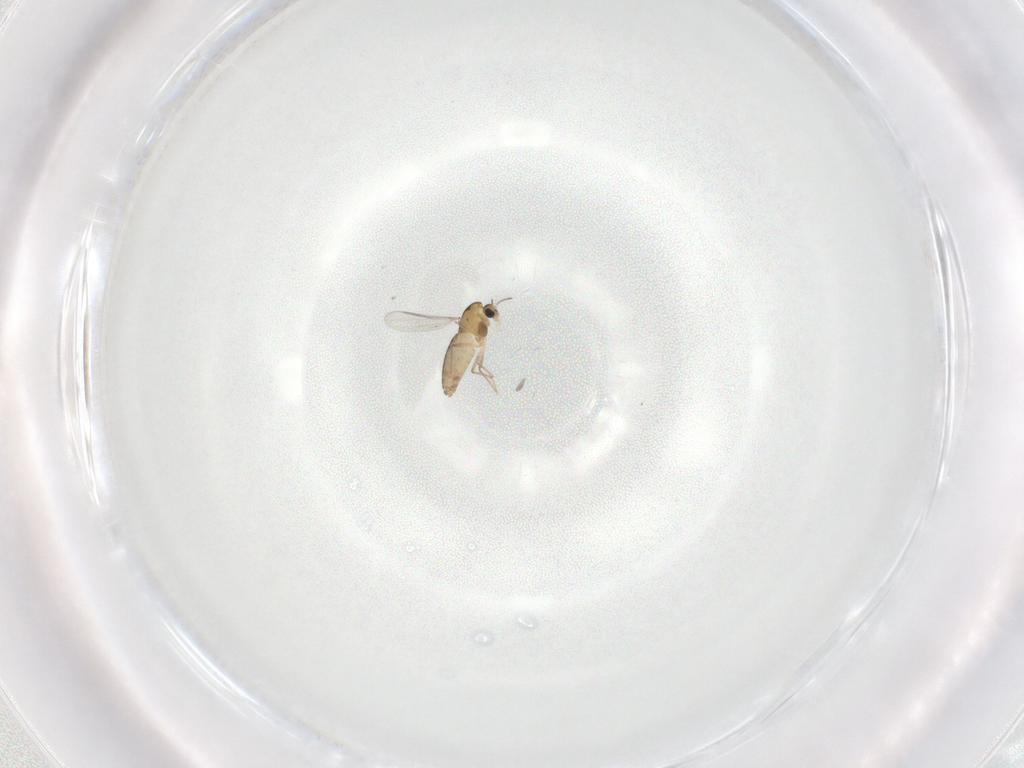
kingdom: Animalia
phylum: Arthropoda
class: Insecta
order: Diptera
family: Chironomidae
